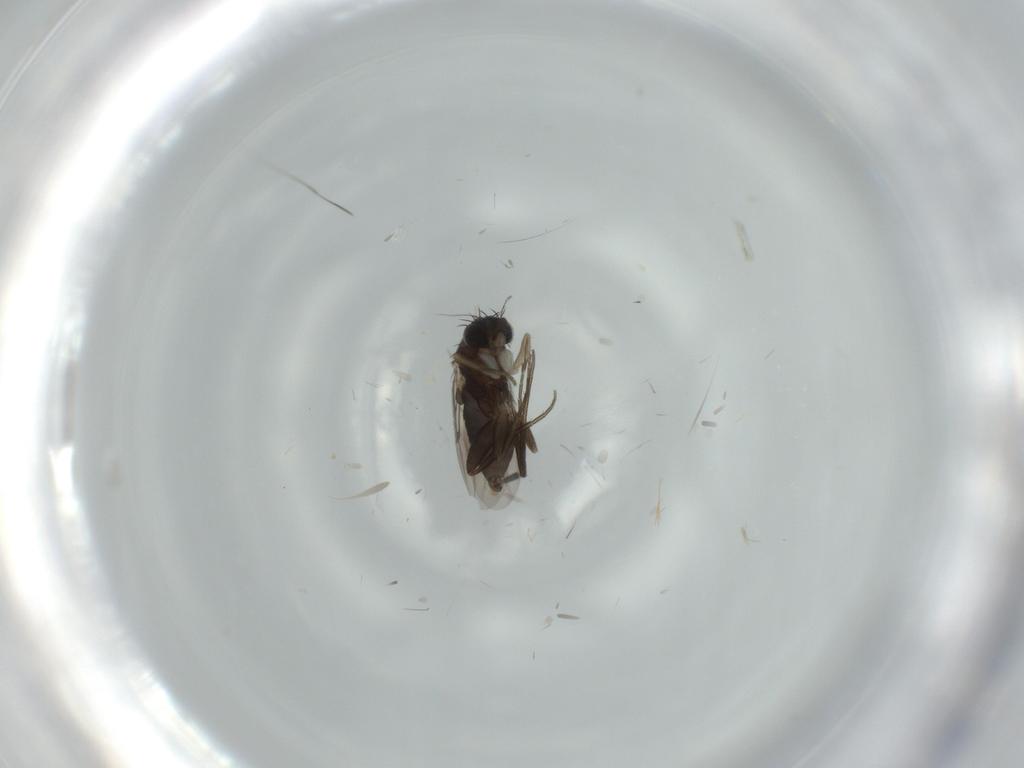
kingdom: Animalia
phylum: Arthropoda
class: Insecta
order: Diptera
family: Phoridae
